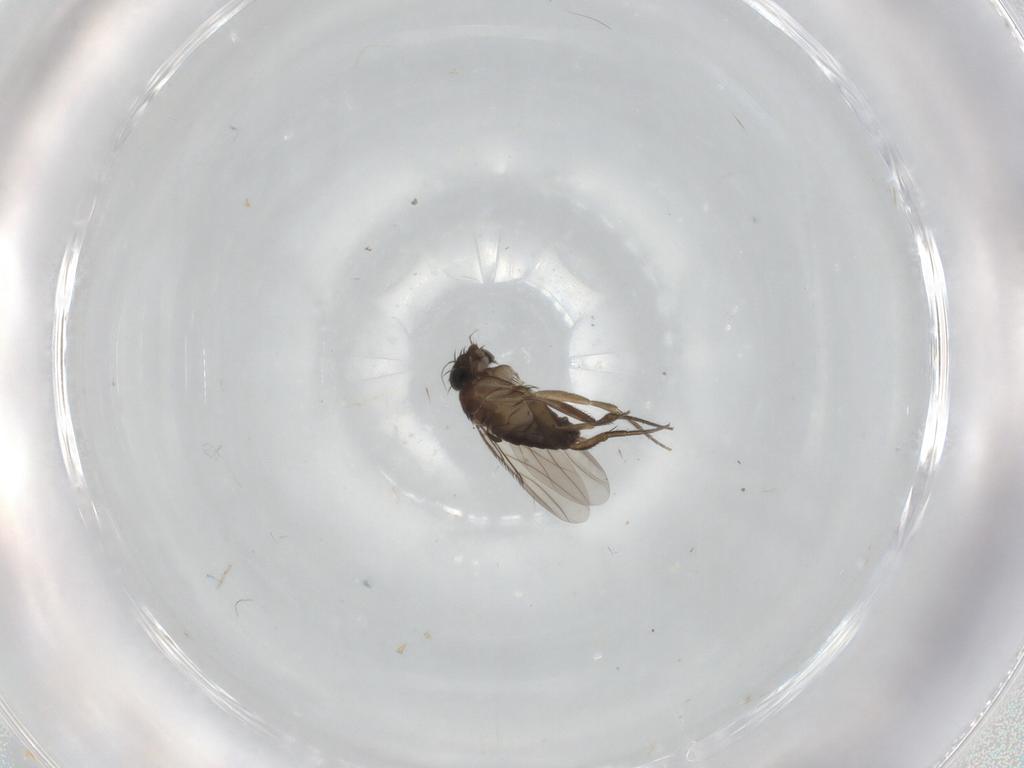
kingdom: Animalia
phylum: Arthropoda
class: Insecta
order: Diptera
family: Phoridae
